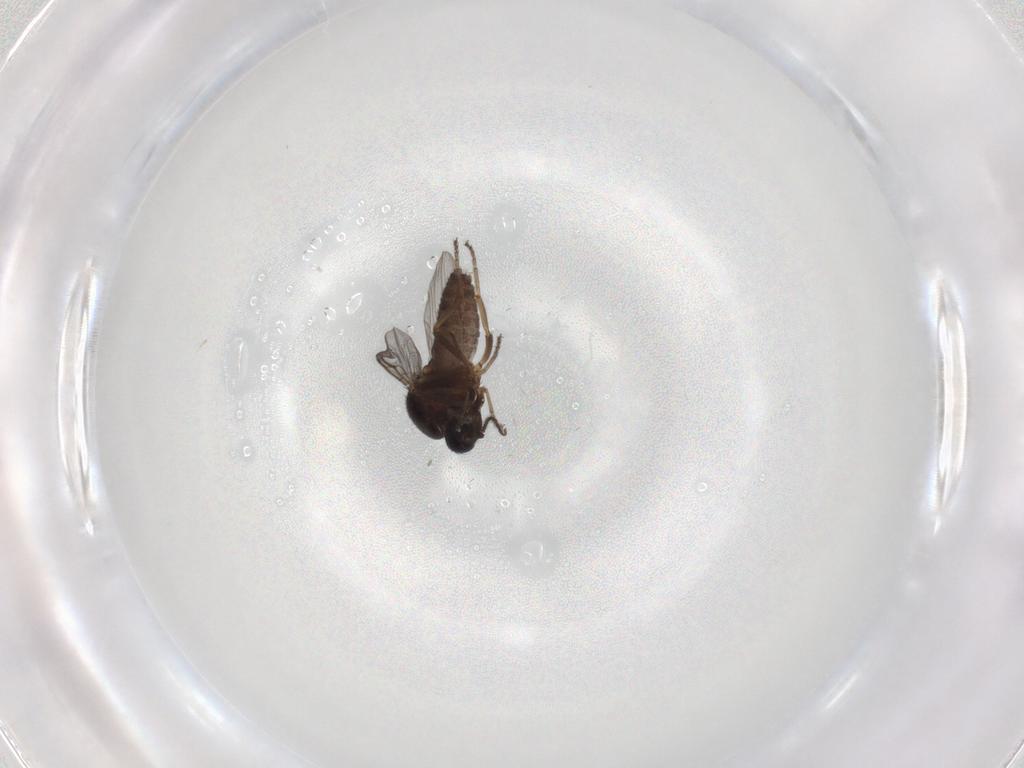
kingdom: Animalia
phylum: Arthropoda
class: Insecta
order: Diptera
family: Ceratopogonidae
